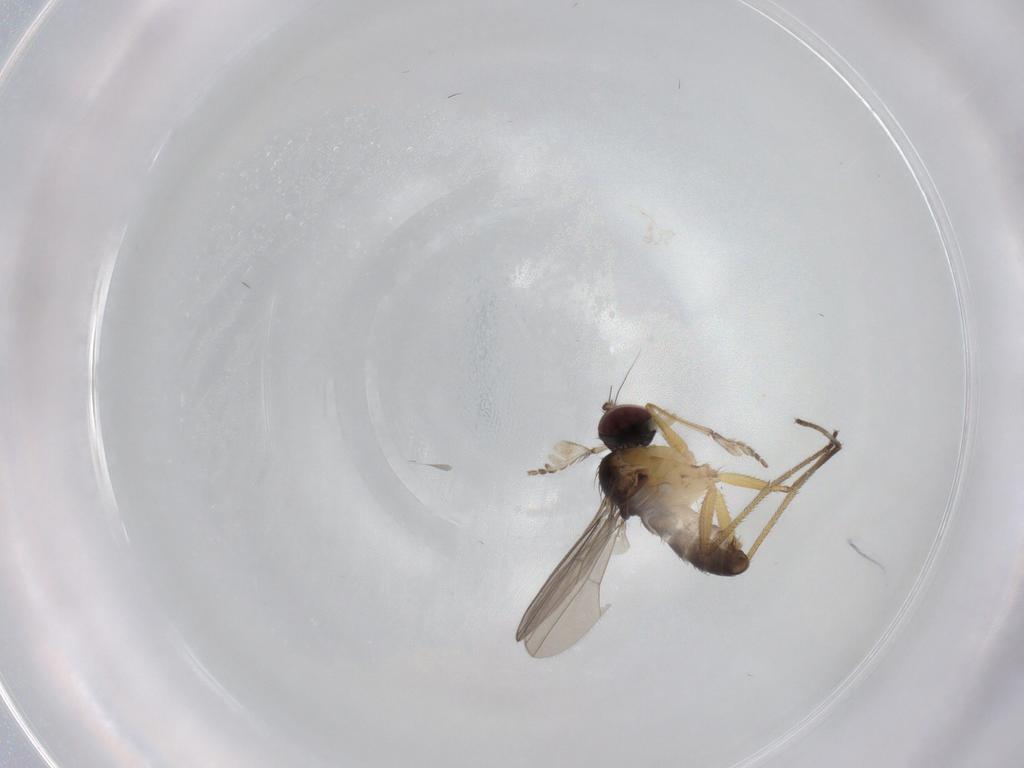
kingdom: Animalia
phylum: Arthropoda
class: Insecta
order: Diptera
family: Dolichopodidae
